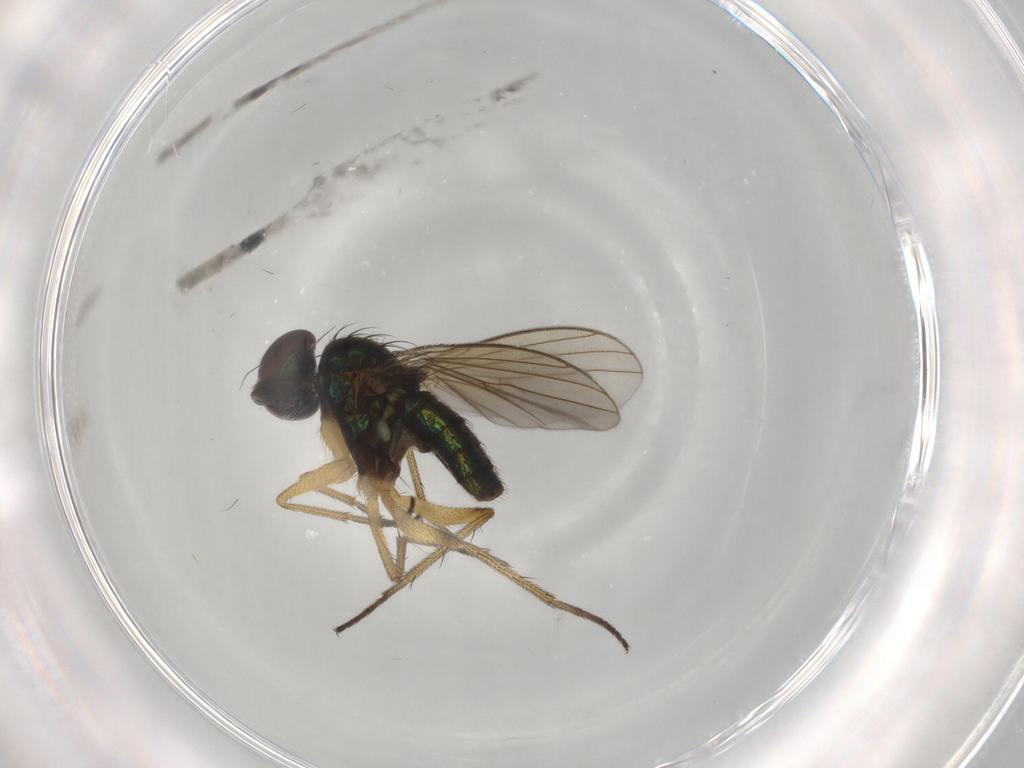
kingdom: Animalia
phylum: Arthropoda
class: Insecta
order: Diptera
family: Dolichopodidae
